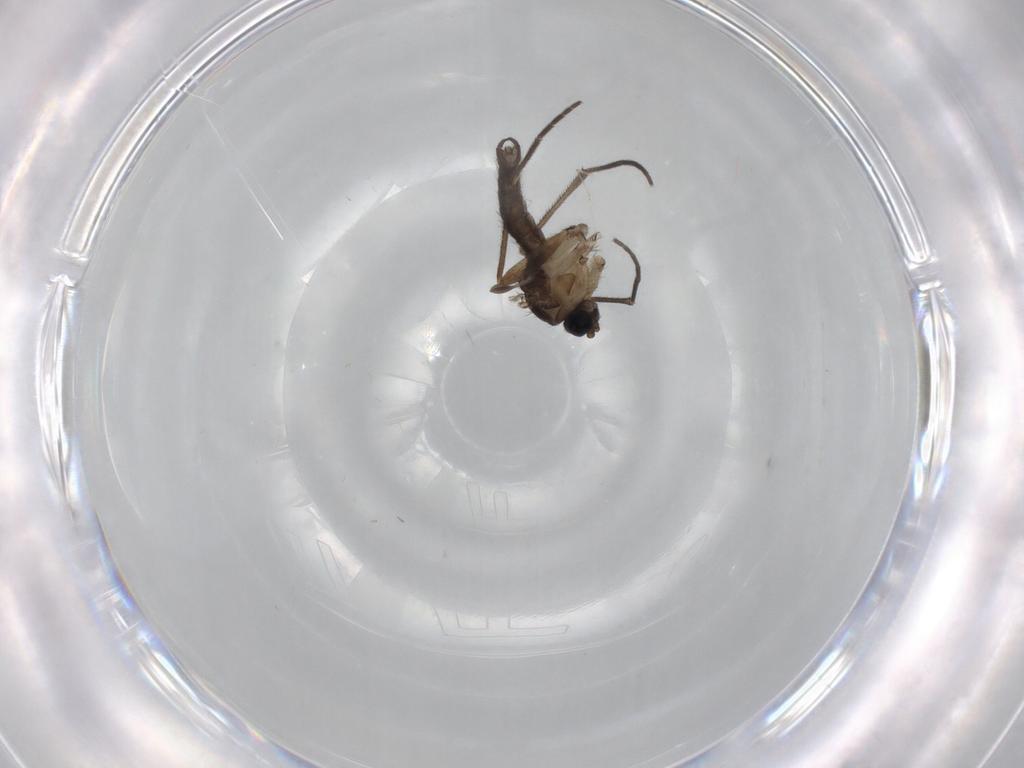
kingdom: Animalia
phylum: Arthropoda
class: Insecta
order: Diptera
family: Sciaridae
